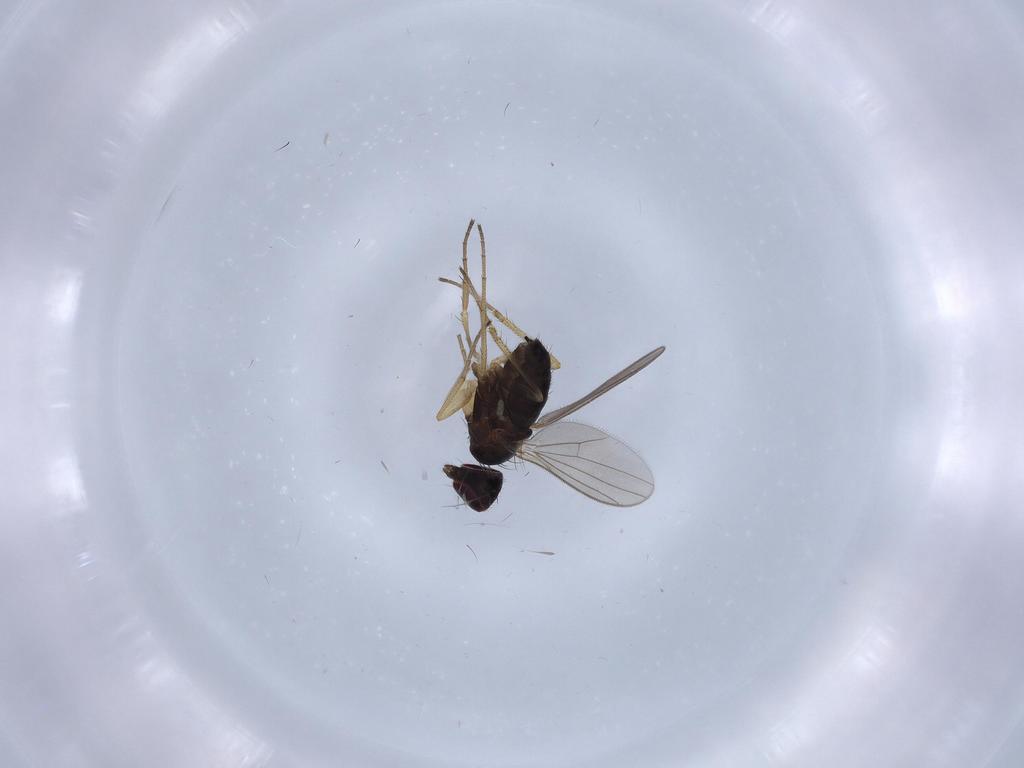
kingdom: Animalia
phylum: Arthropoda
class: Insecta
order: Diptera
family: Dolichopodidae
